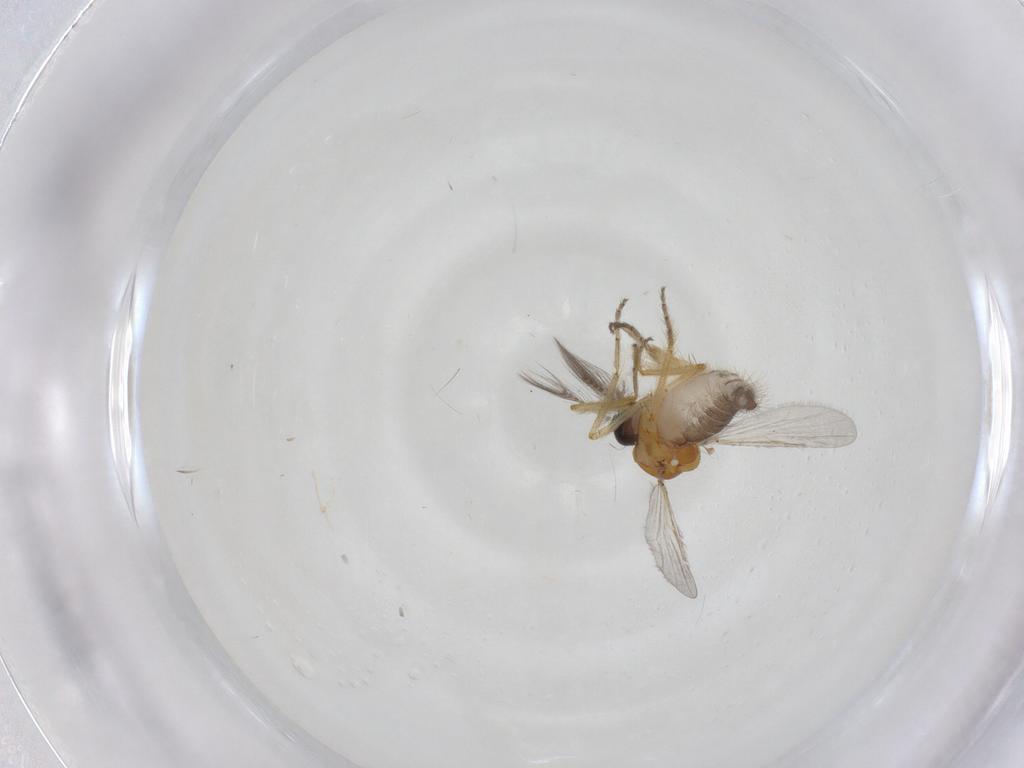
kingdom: Animalia
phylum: Arthropoda
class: Insecta
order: Diptera
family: Ceratopogonidae
